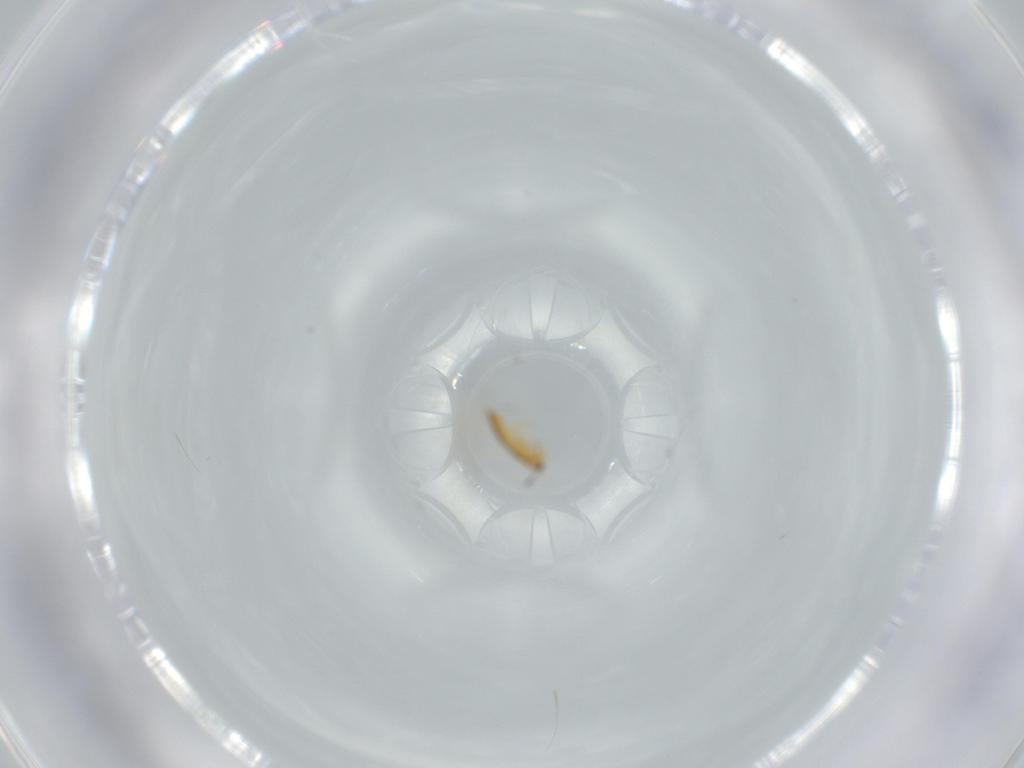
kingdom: Animalia
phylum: Arthropoda
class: Insecta
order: Thysanoptera
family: Thripidae
